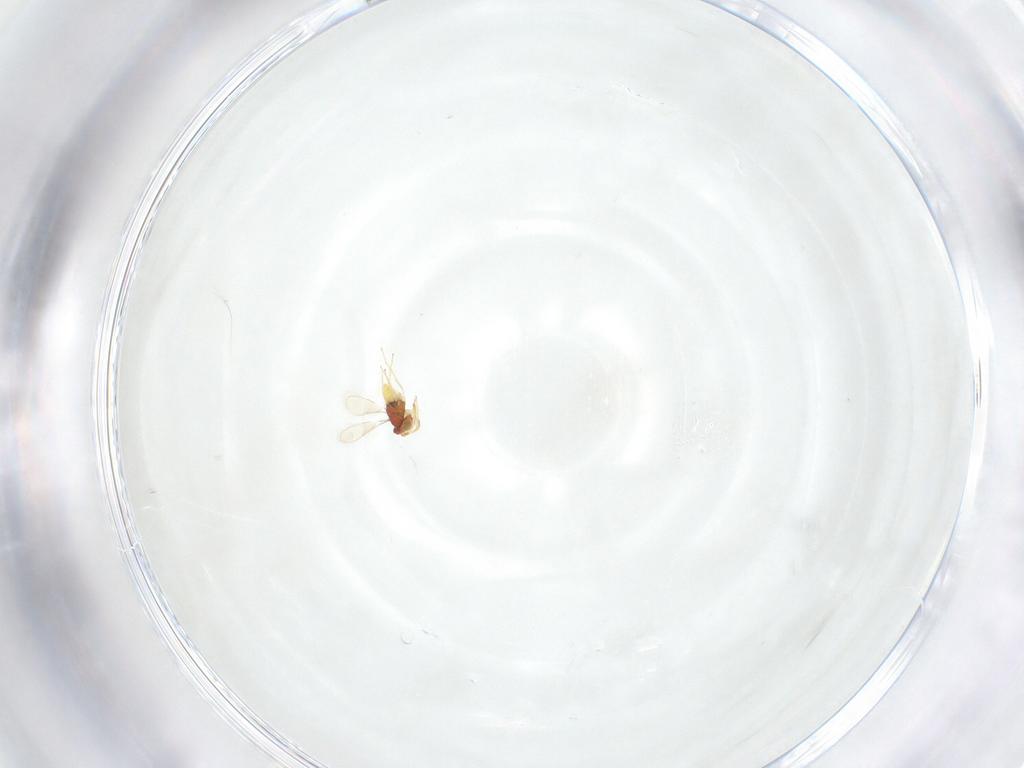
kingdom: Animalia
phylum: Arthropoda
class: Insecta
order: Hymenoptera
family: Aphelinidae
